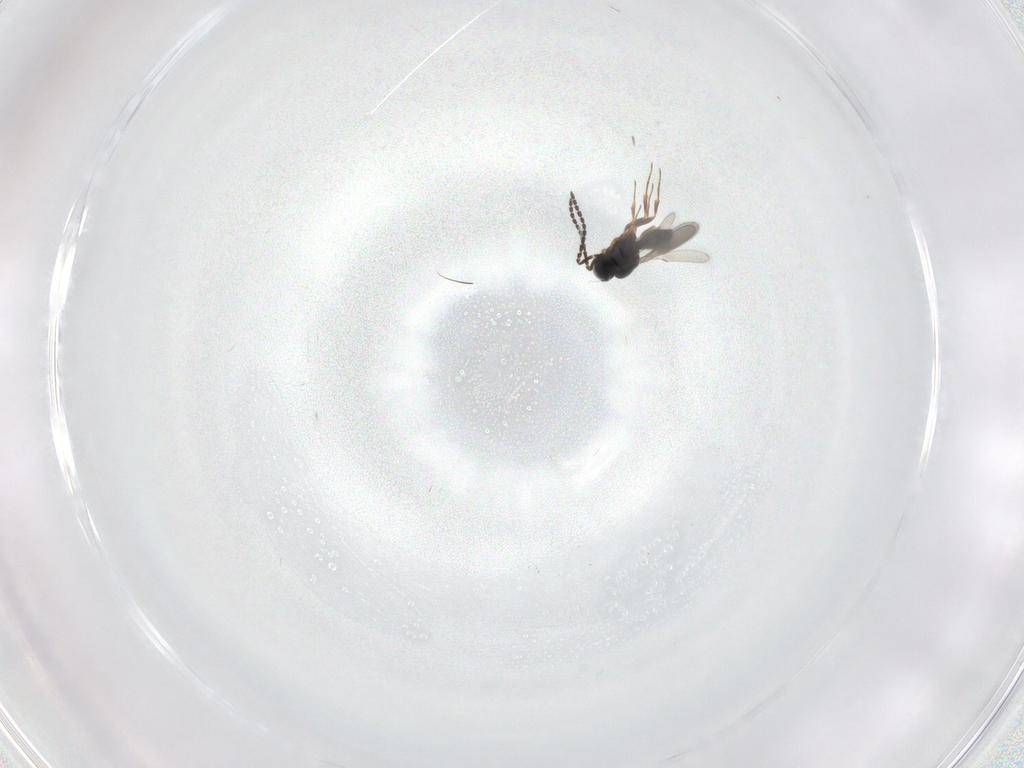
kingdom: Animalia
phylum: Arthropoda
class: Insecta
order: Hymenoptera
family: Scelionidae
